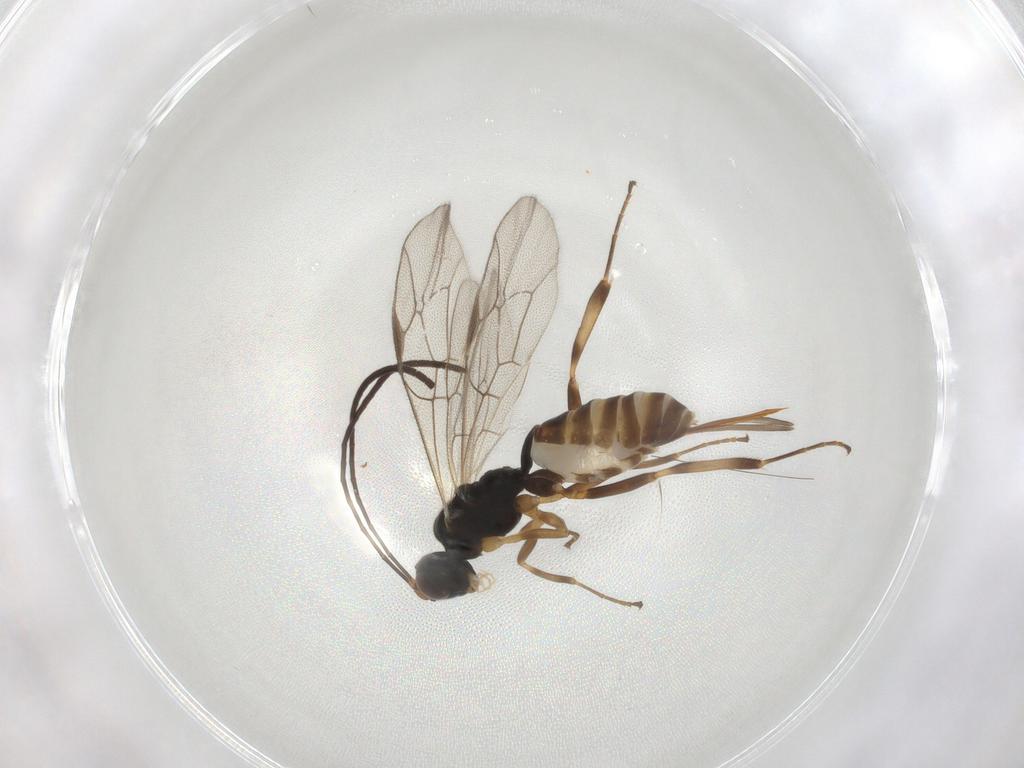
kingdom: Animalia
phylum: Arthropoda
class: Insecta
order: Hymenoptera
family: Ichneumonidae
